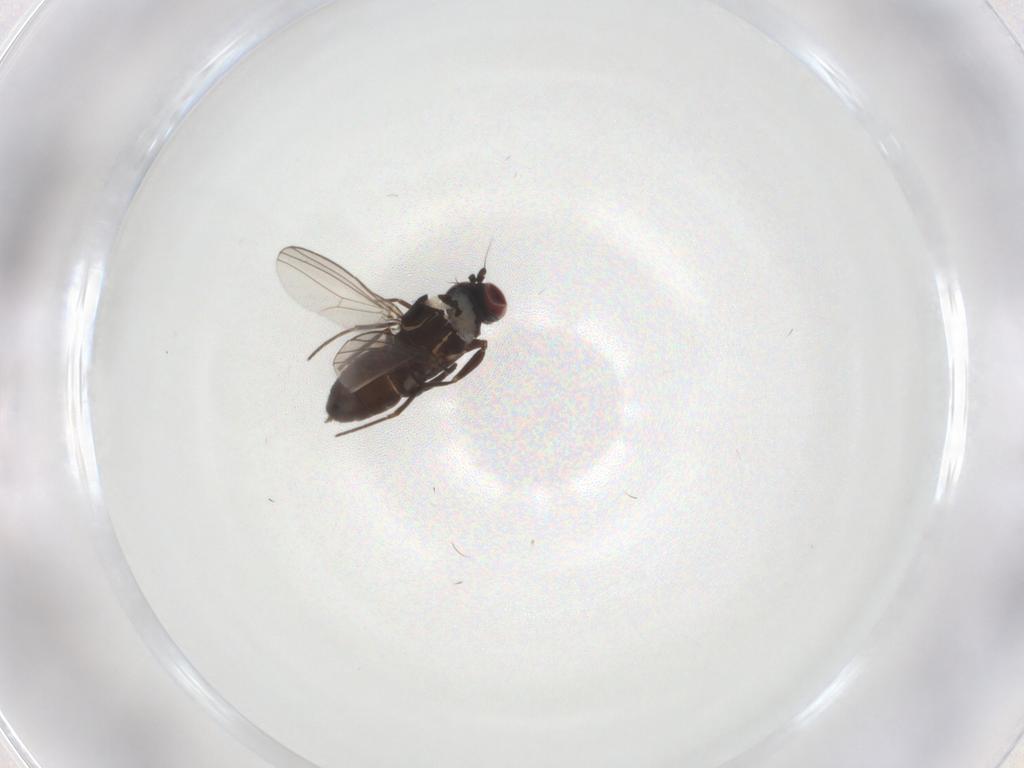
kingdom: Animalia
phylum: Arthropoda
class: Insecta
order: Diptera
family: Dolichopodidae
